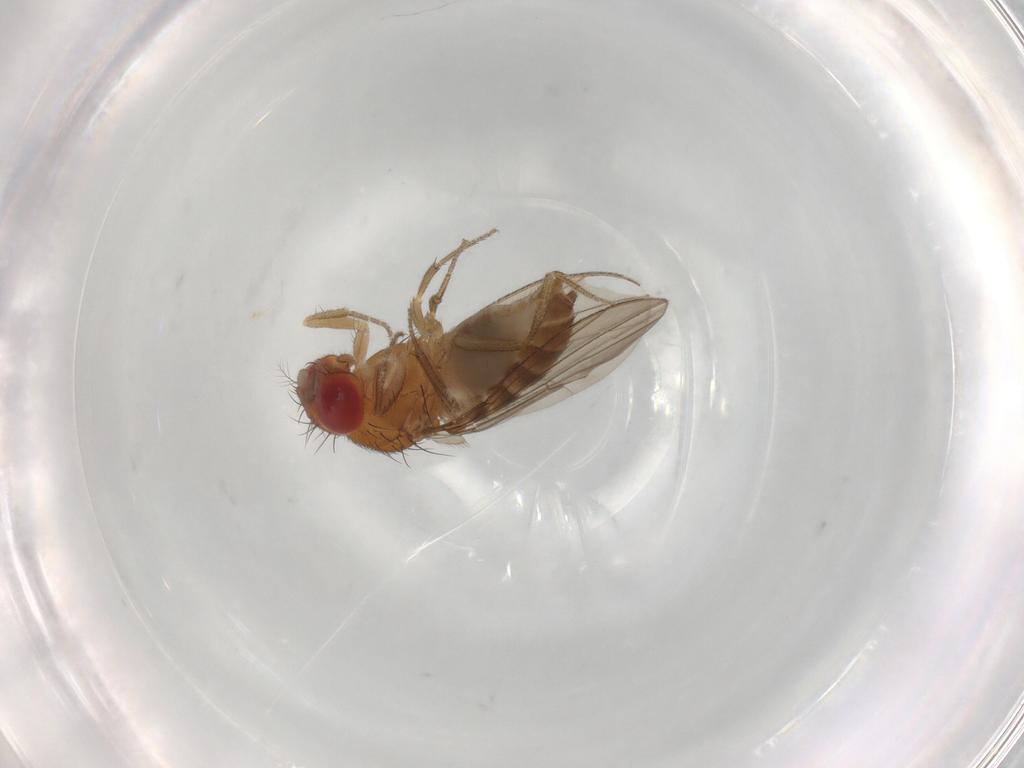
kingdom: Animalia
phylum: Arthropoda
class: Insecta
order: Diptera
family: Drosophilidae
